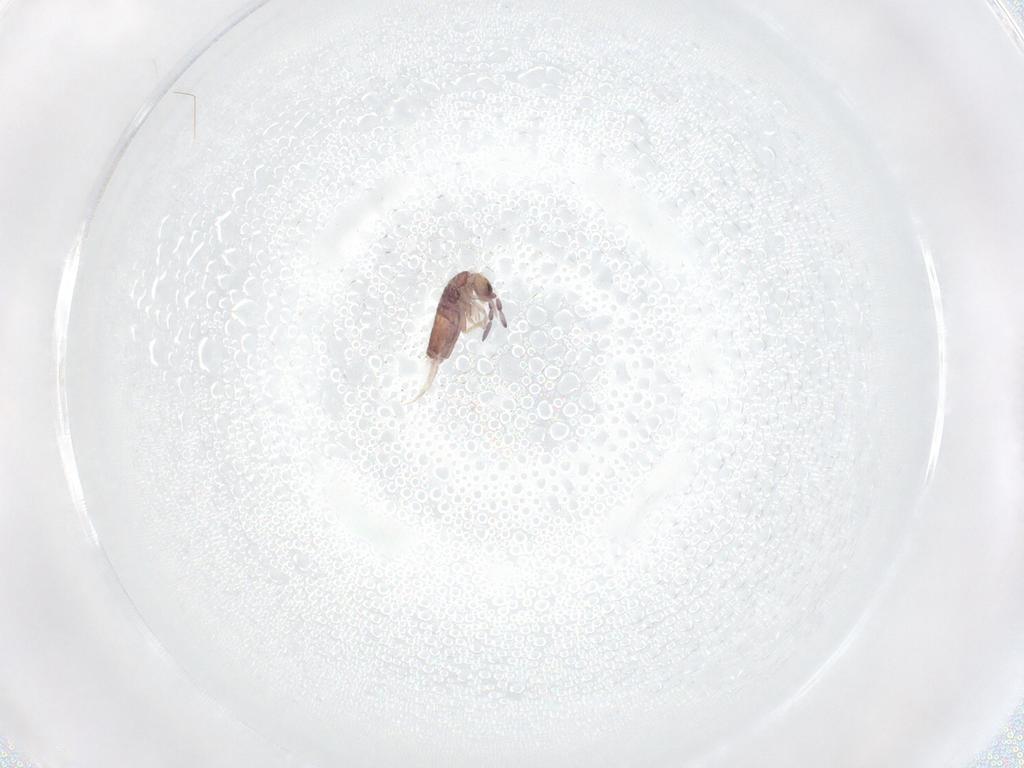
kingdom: Animalia
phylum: Arthropoda
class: Collembola
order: Entomobryomorpha
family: Entomobryidae
